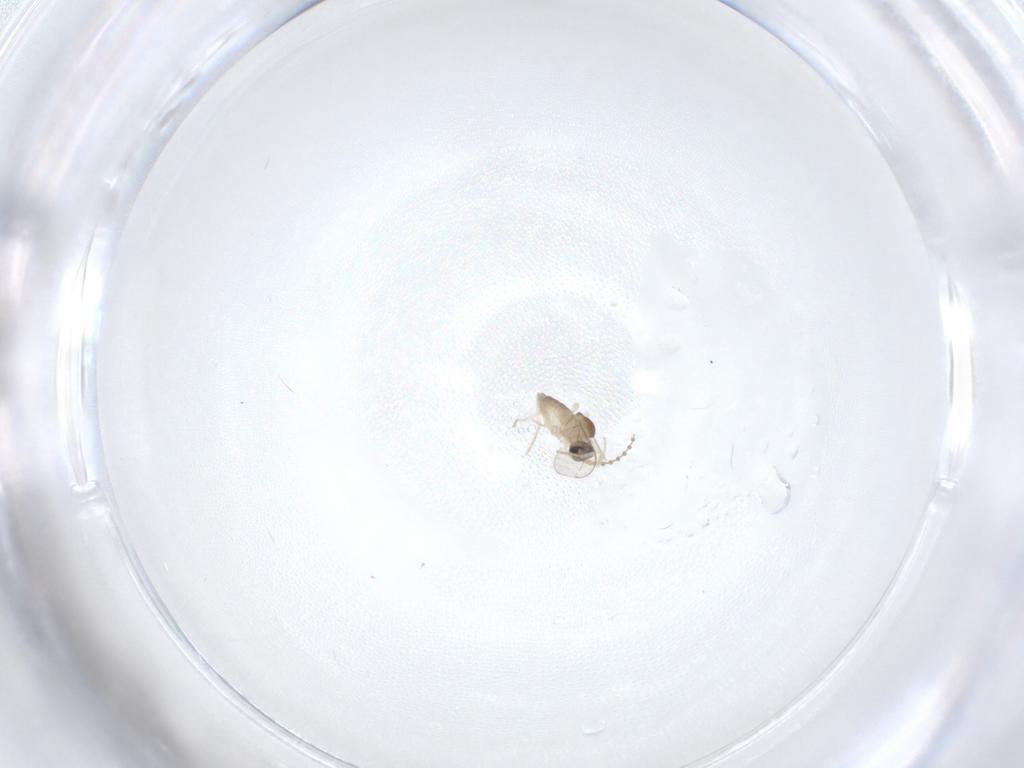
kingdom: Animalia
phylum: Arthropoda
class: Insecta
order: Diptera
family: Cecidomyiidae
